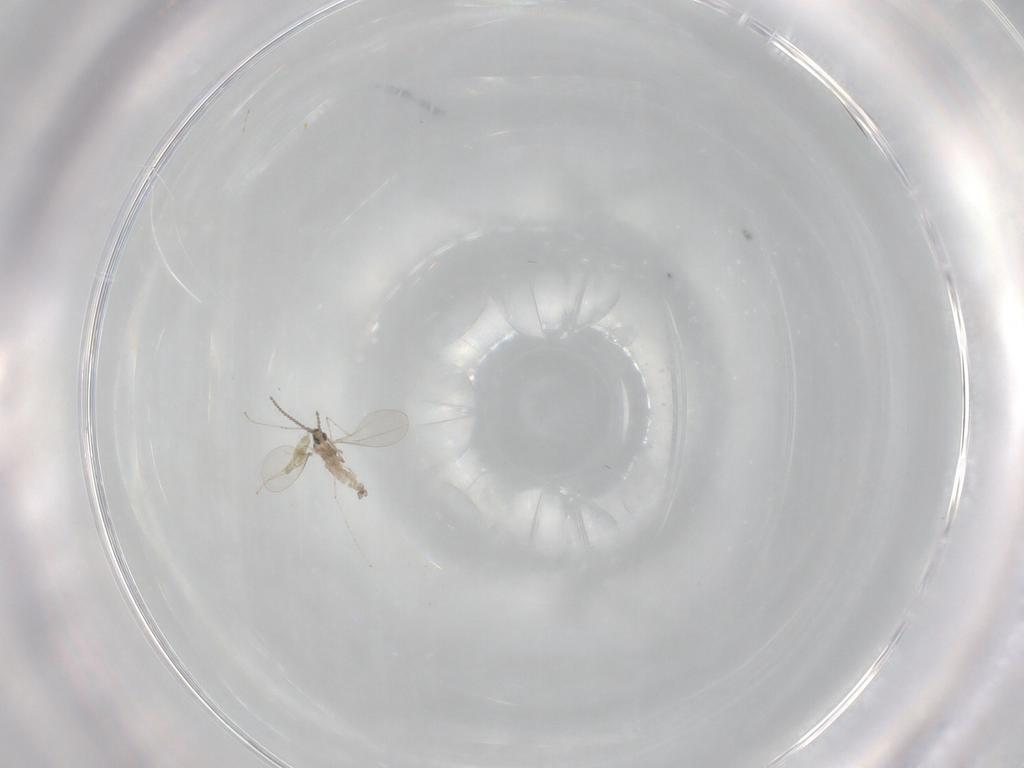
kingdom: Animalia
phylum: Arthropoda
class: Insecta
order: Diptera
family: Cecidomyiidae
